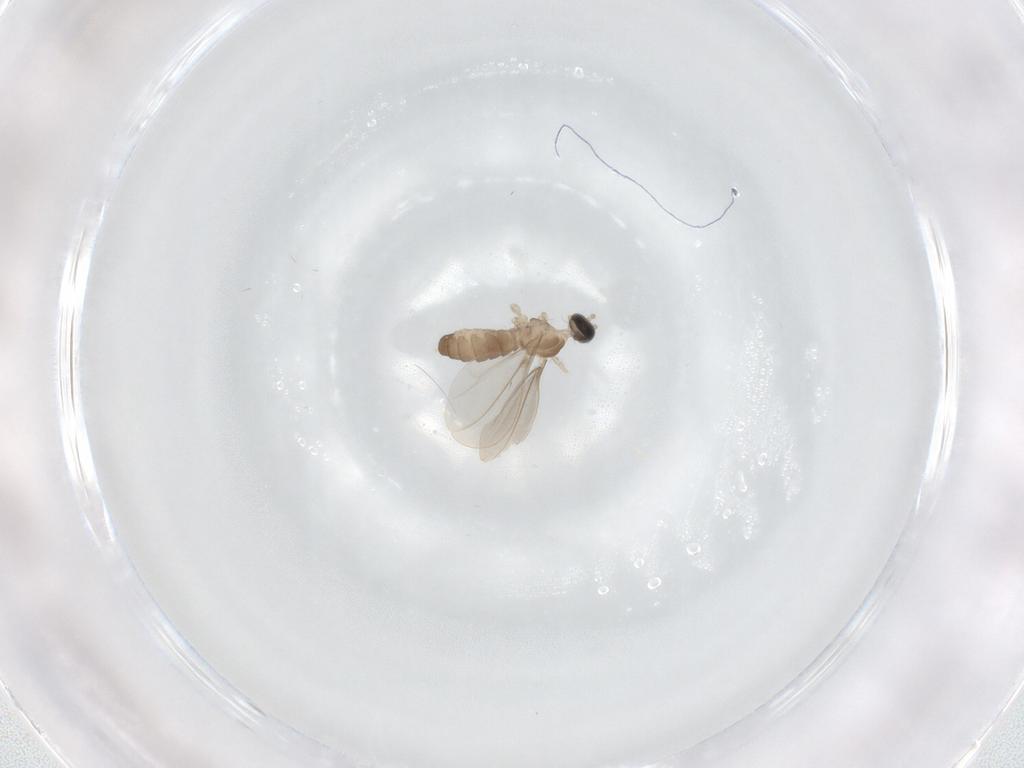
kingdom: Animalia
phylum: Arthropoda
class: Insecta
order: Diptera
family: Cecidomyiidae
